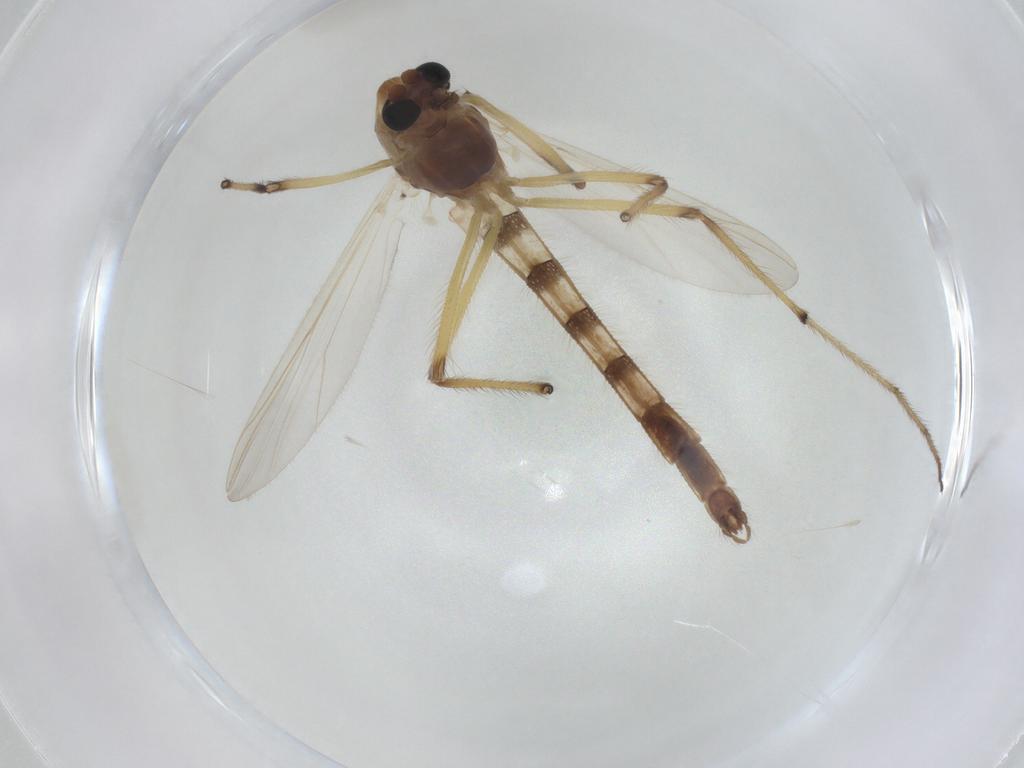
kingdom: Animalia
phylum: Arthropoda
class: Insecta
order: Diptera
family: Chironomidae
